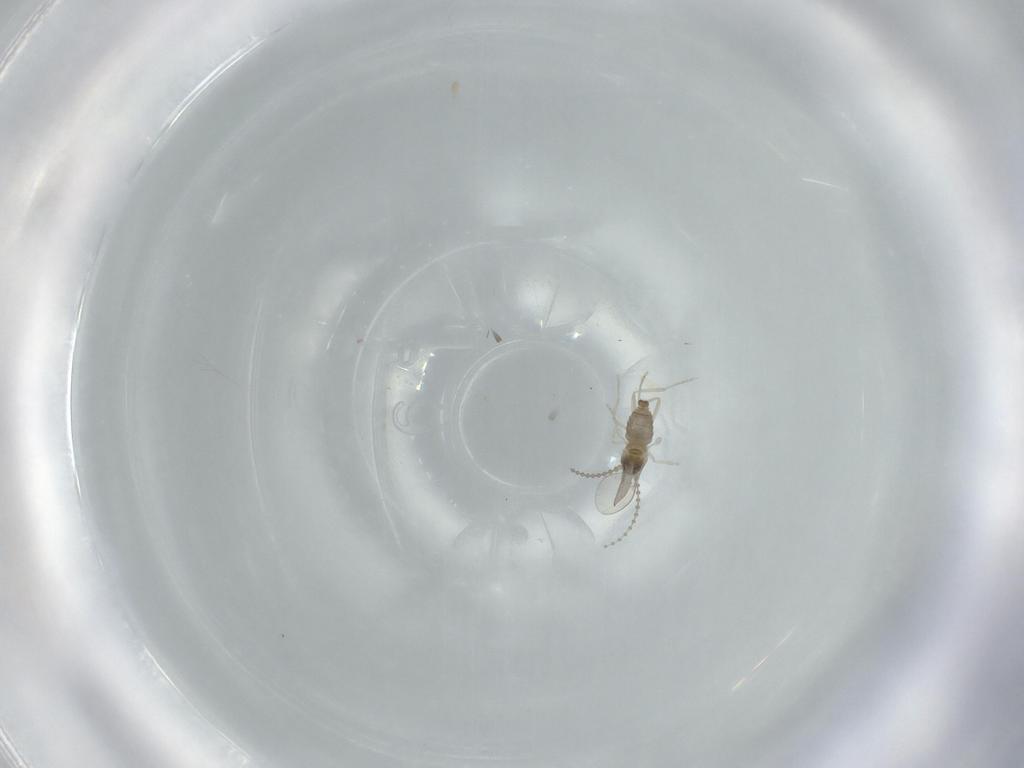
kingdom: Animalia
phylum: Arthropoda
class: Insecta
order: Diptera
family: Cecidomyiidae
